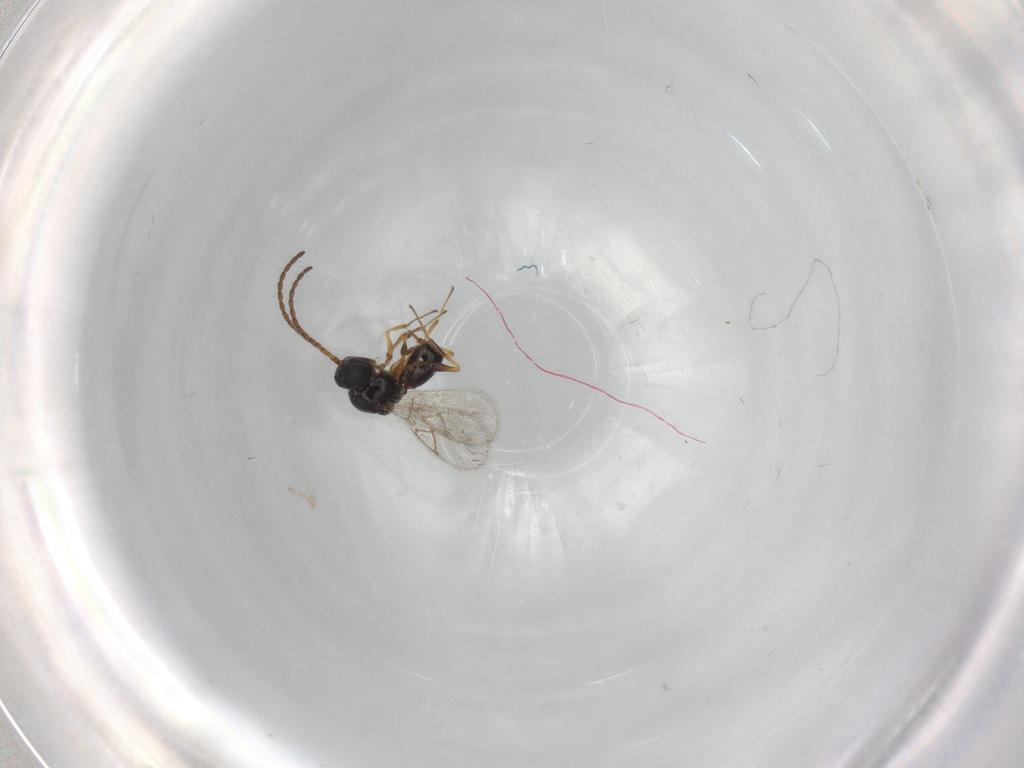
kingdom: Animalia
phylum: Arthropoda
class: Insecta
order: Hymenoptera
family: Figitidae
